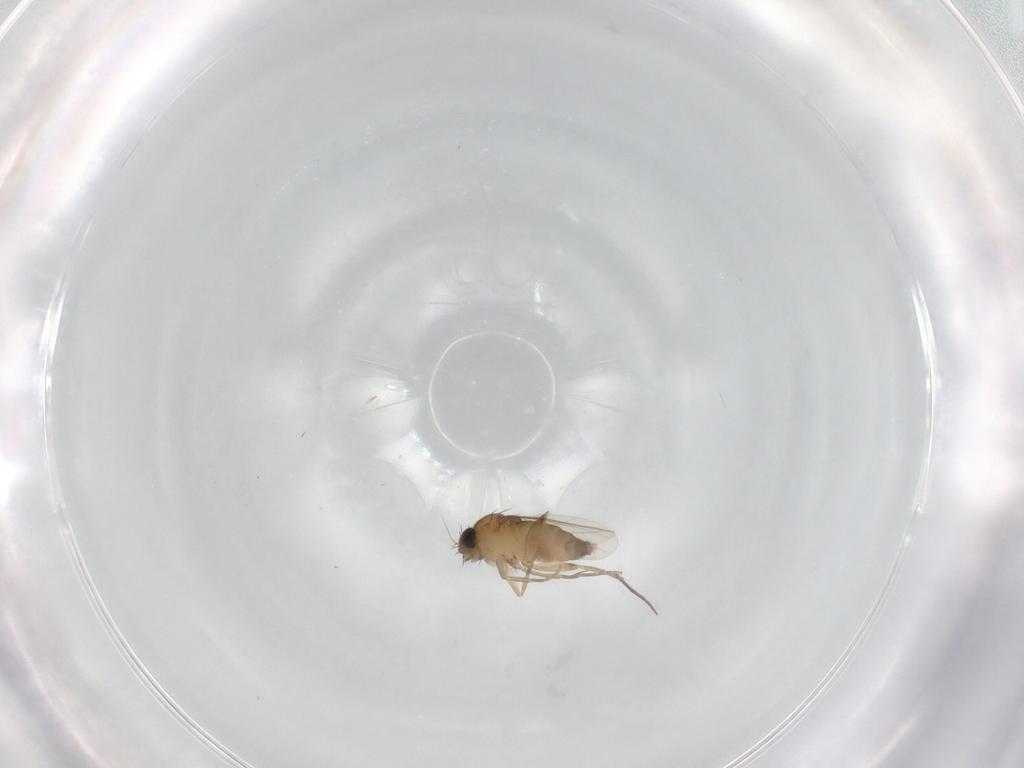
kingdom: Animalia
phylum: Arthropoda
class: Insecta
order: Diptera
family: Phoridae
